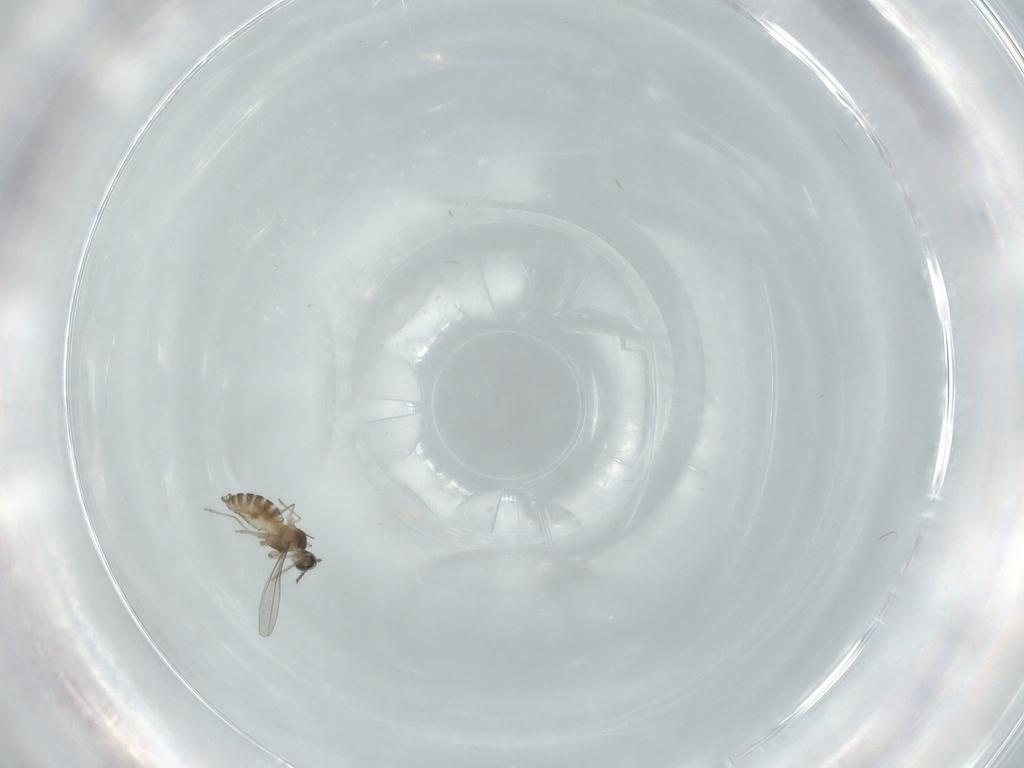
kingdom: Animalia
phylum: Arthropoda
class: Insecta
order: Diptera
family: Cecidomyiidae
